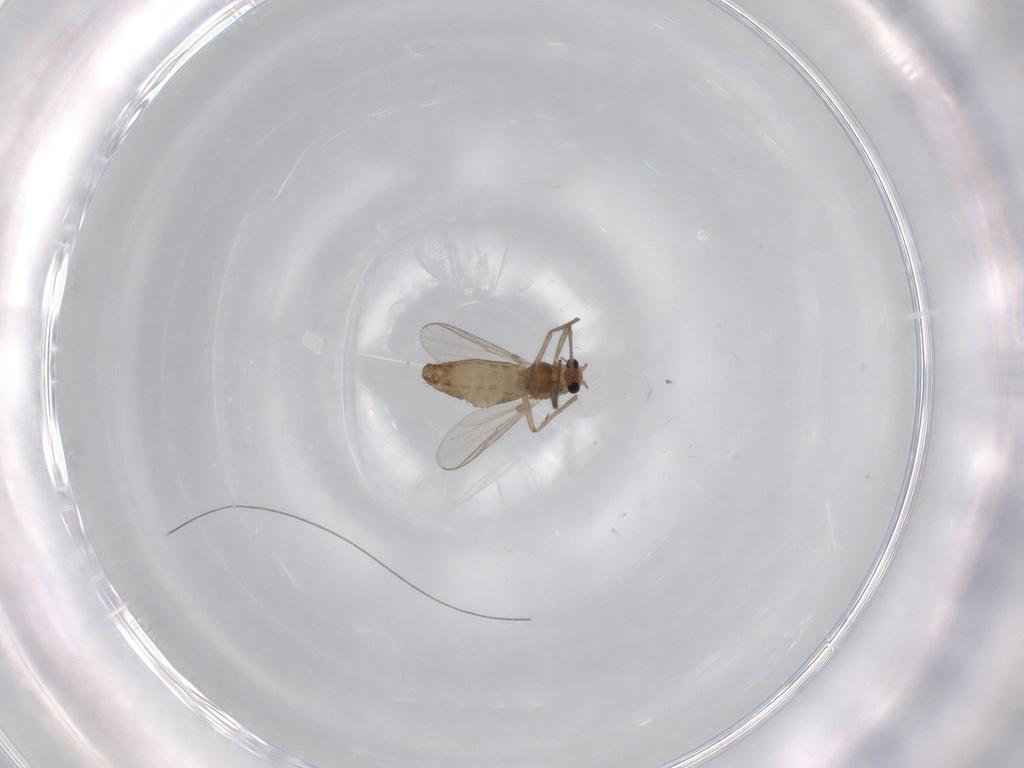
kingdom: Animalia
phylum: Arthropoda
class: Insecta
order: Diptera
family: Chironomidae
